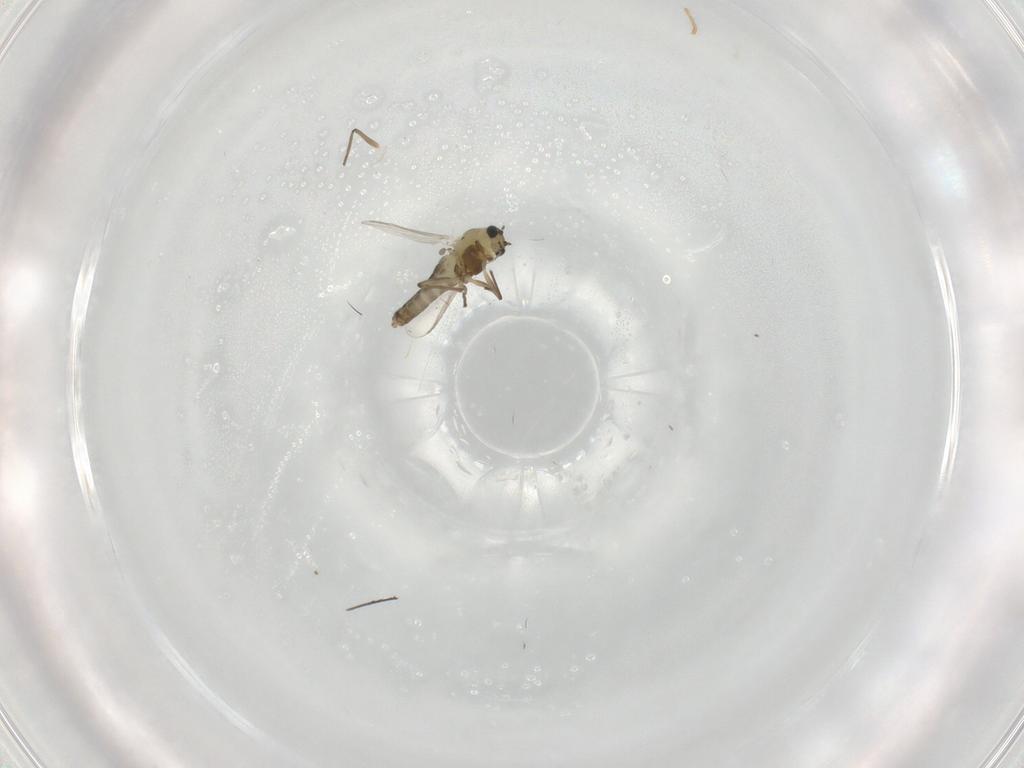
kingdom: Animalia
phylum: Arthropoda
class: Insecta
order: Diptera
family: Chironomidae
